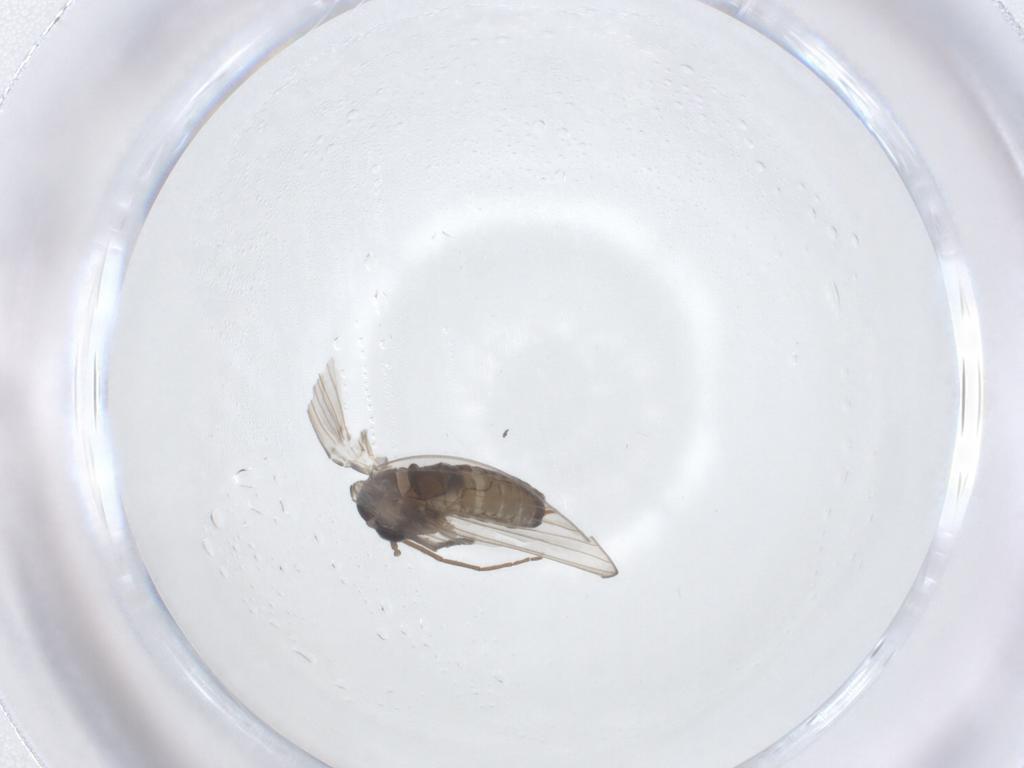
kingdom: Animalia
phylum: Arthropoda
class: Insecta
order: Diptera
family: Psychodidae
